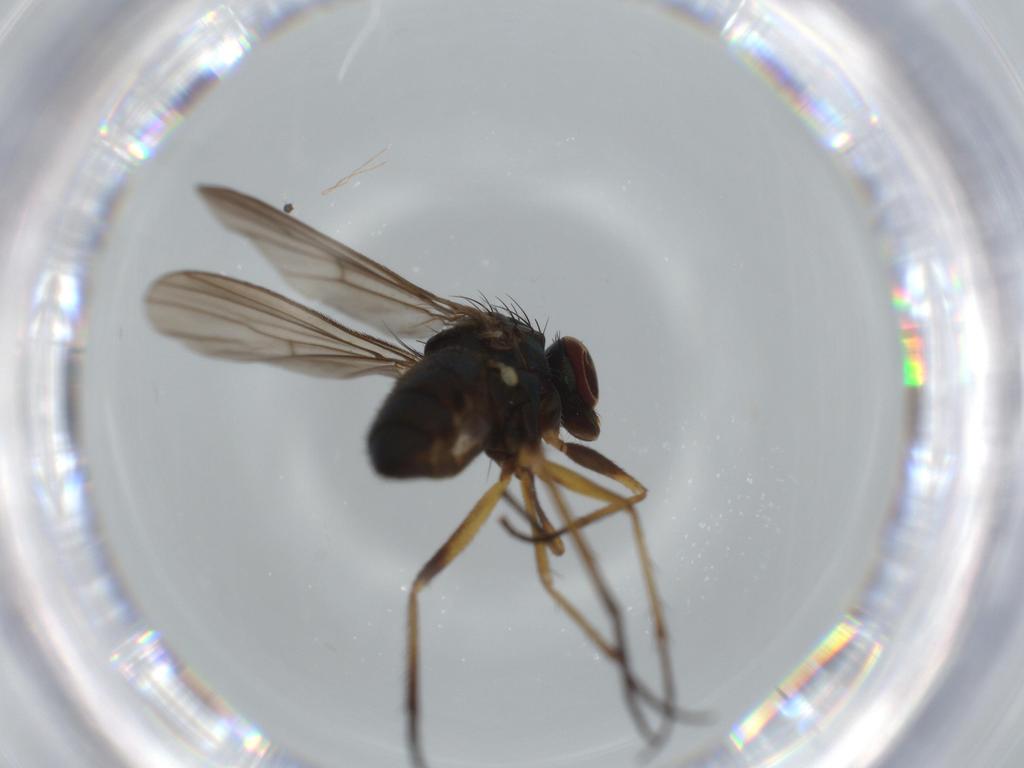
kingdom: Animalia
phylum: Arthropoda
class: Insecta
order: Diptera
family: Dolichopodidae
